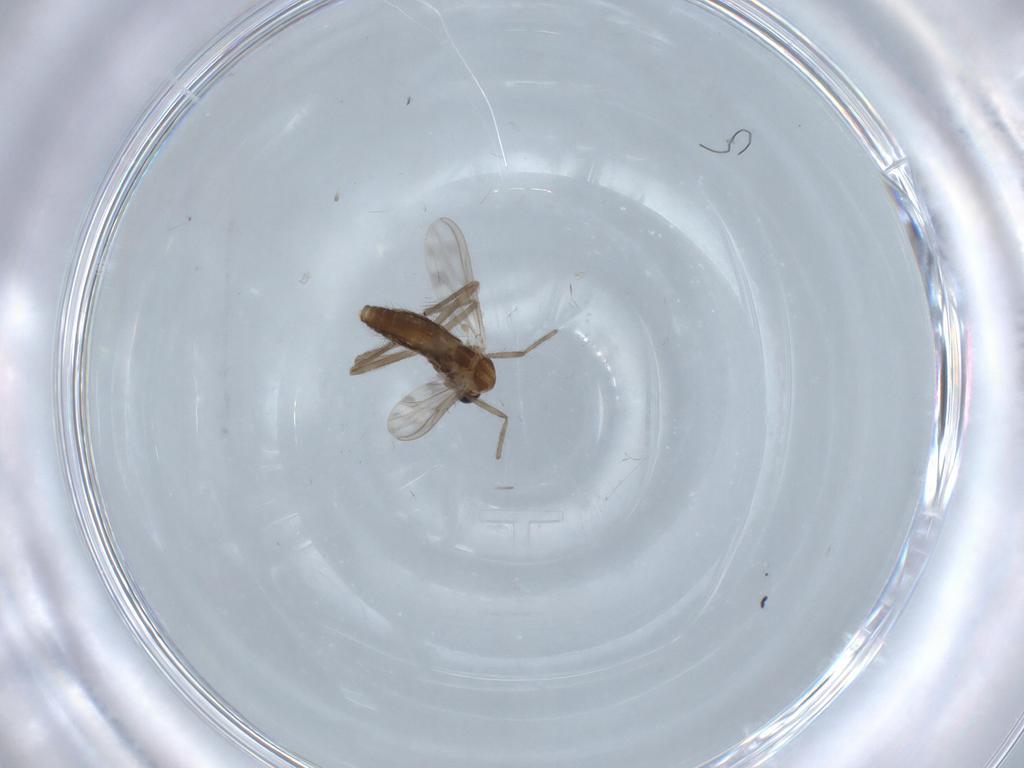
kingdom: Animalia
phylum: Arthropoda
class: Insecta
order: Diptera
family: Chironomidae
